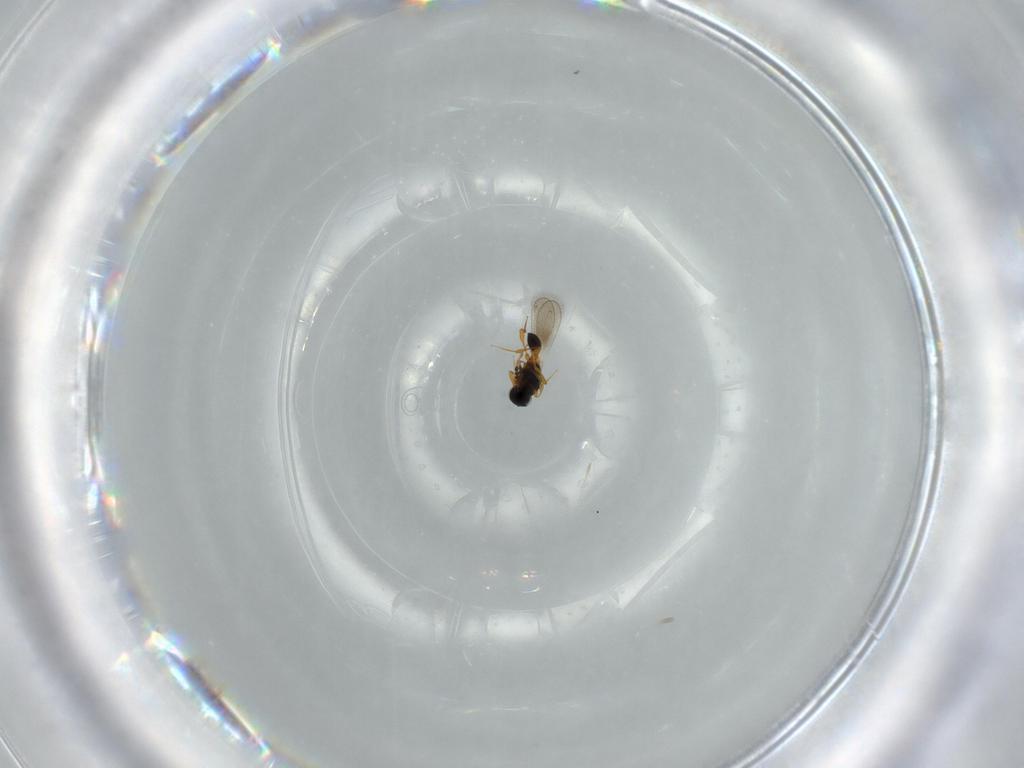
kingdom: Animalia
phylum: Arthropoda
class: Insecta
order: Hymenoptera
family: Platygastridae
